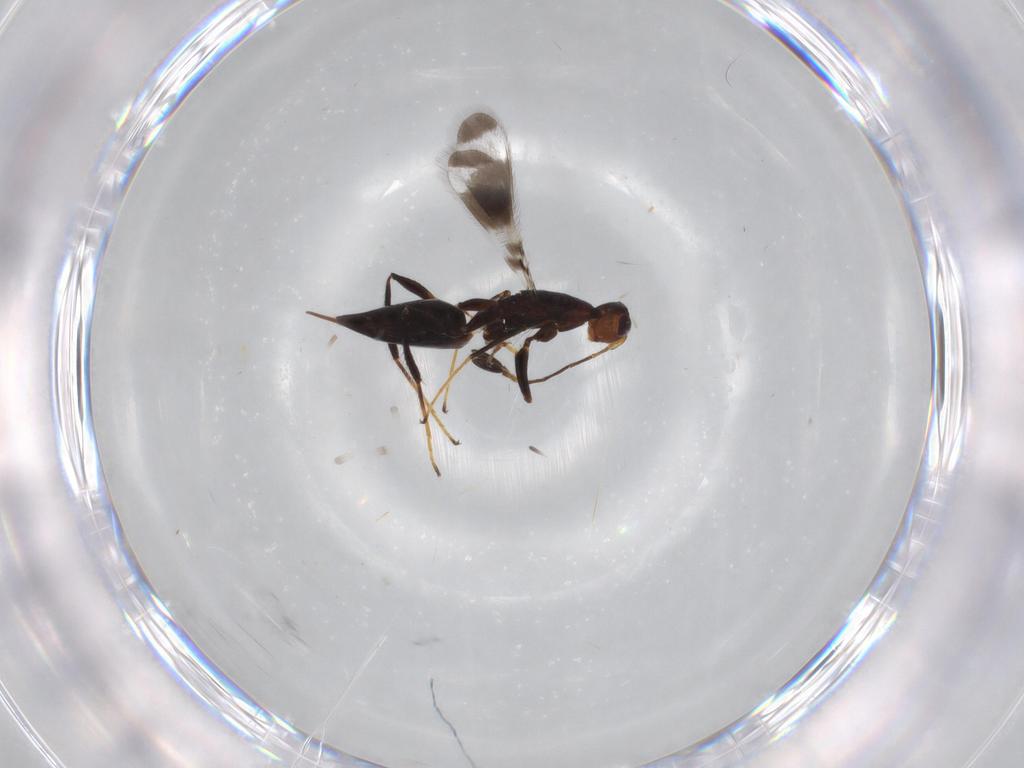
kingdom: Animalia
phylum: Arthropoda
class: Insecta
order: Hymenoptera
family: Mymaridae
